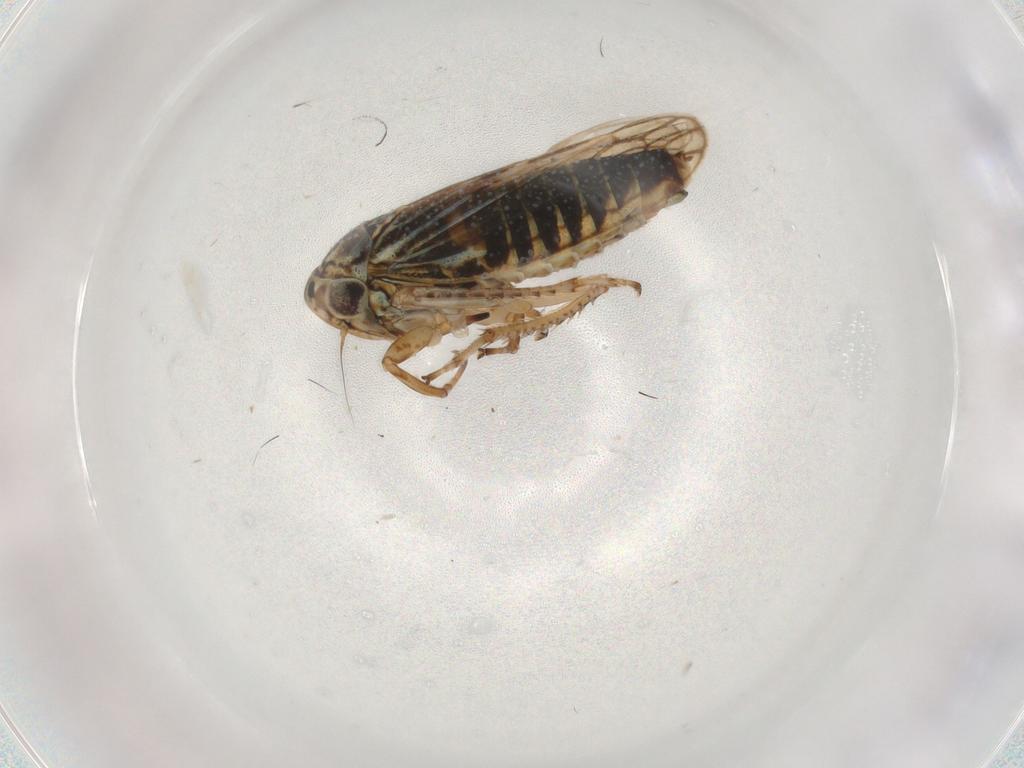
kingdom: Animalia
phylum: Arthropoda
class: Insecta
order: Hemiptera
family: Cicadellidae
